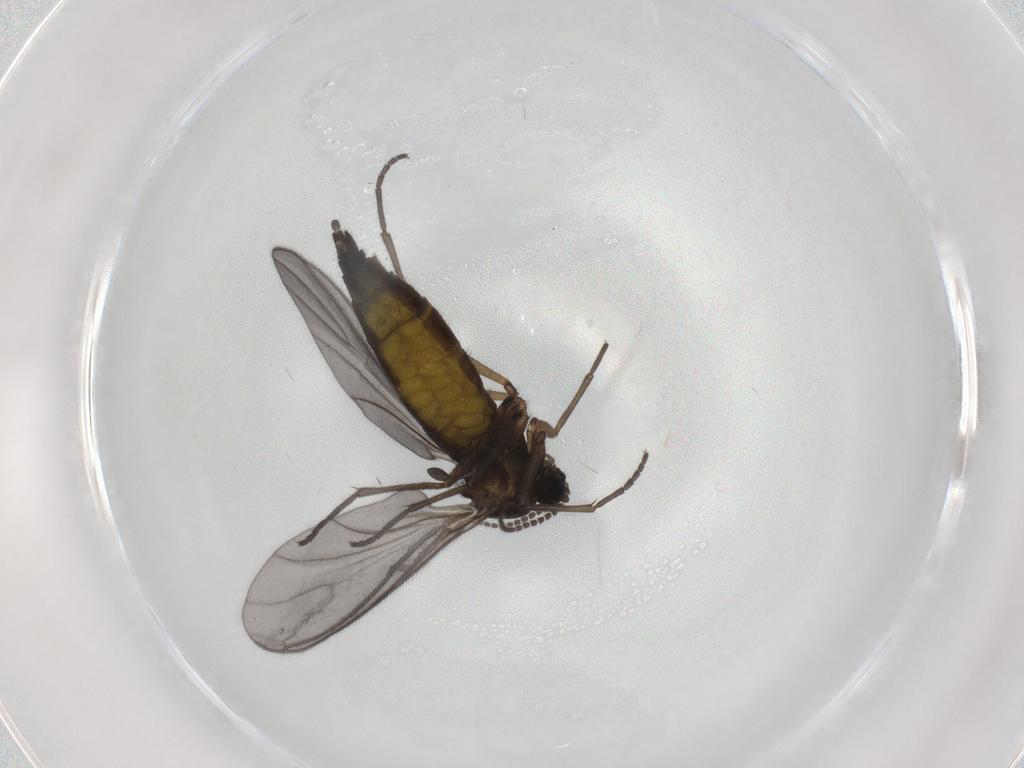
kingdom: Animalia
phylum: Arthropoda
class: Insecta
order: Diptera
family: Sciaridae
